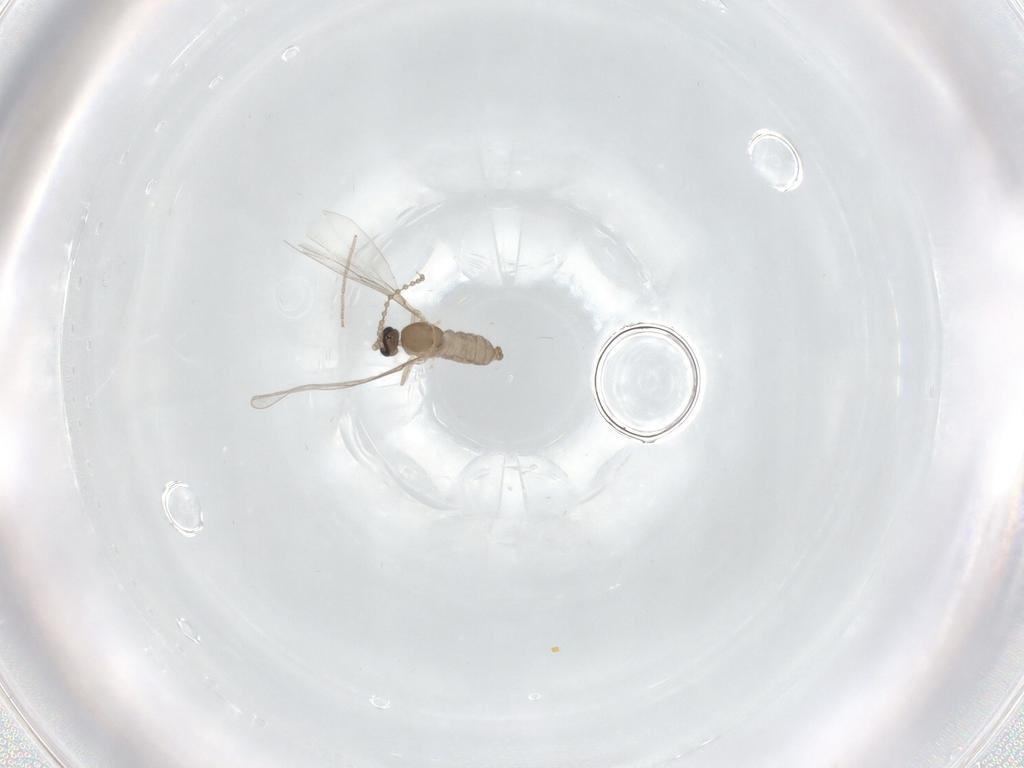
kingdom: Animalia
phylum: Arthropoda
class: Insecta
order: Diptera
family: Cecidomyiidae
